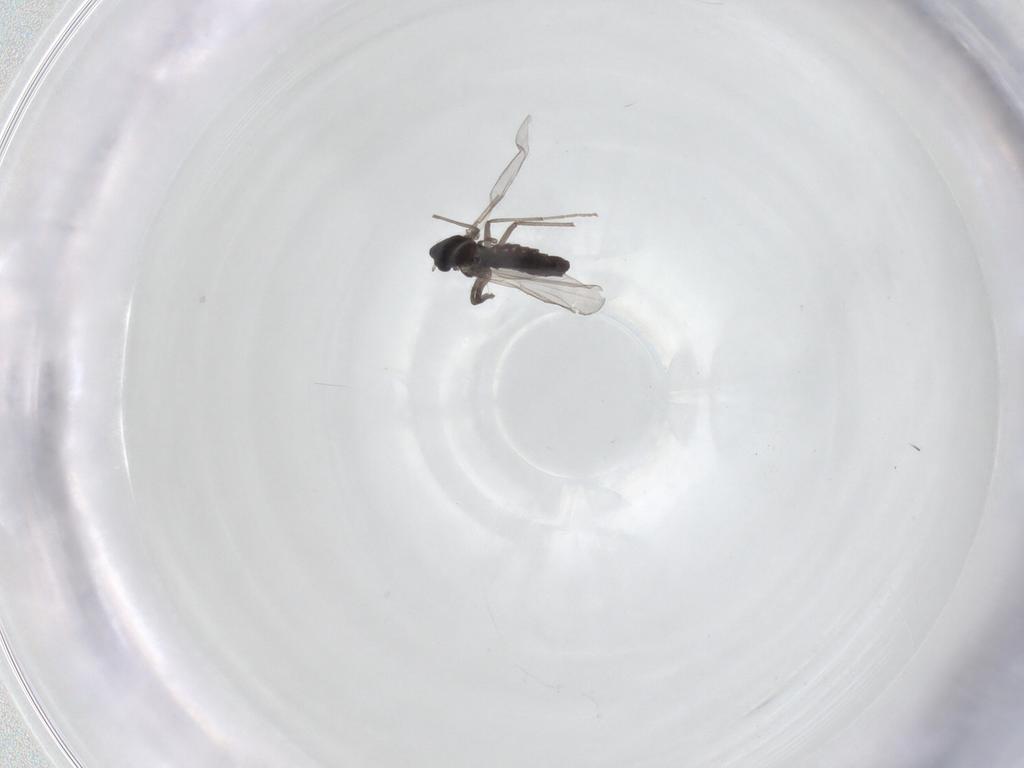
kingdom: Animalia
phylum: Arthropoda
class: Insecta
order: Diptera
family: Chironomidae
